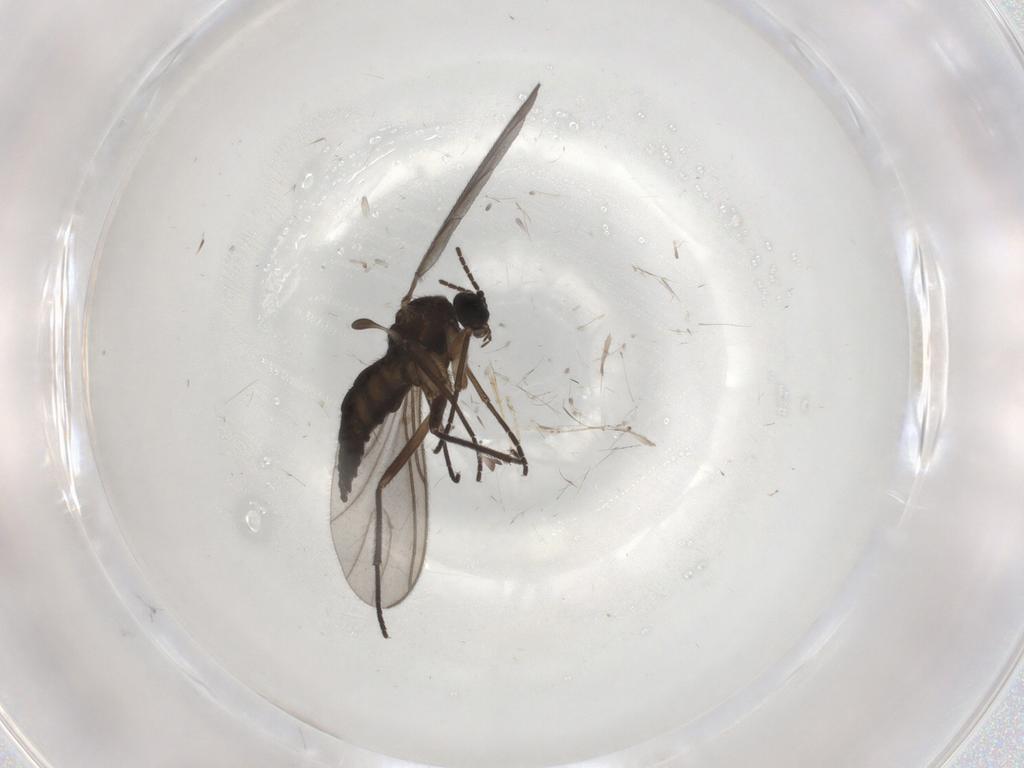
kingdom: Animalia
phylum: Arthropoda
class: Insecta
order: Diptera
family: Sciaridae
